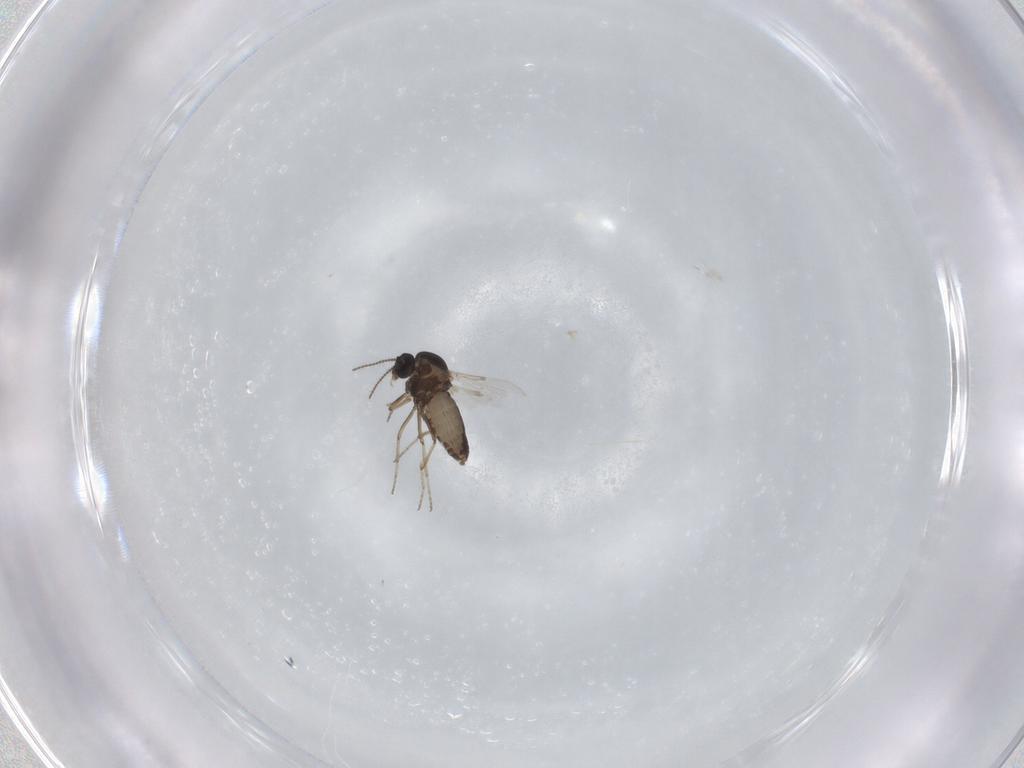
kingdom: Animalia
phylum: Arthropoda
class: Insecta
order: Diptera
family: Ceratopogonidae
